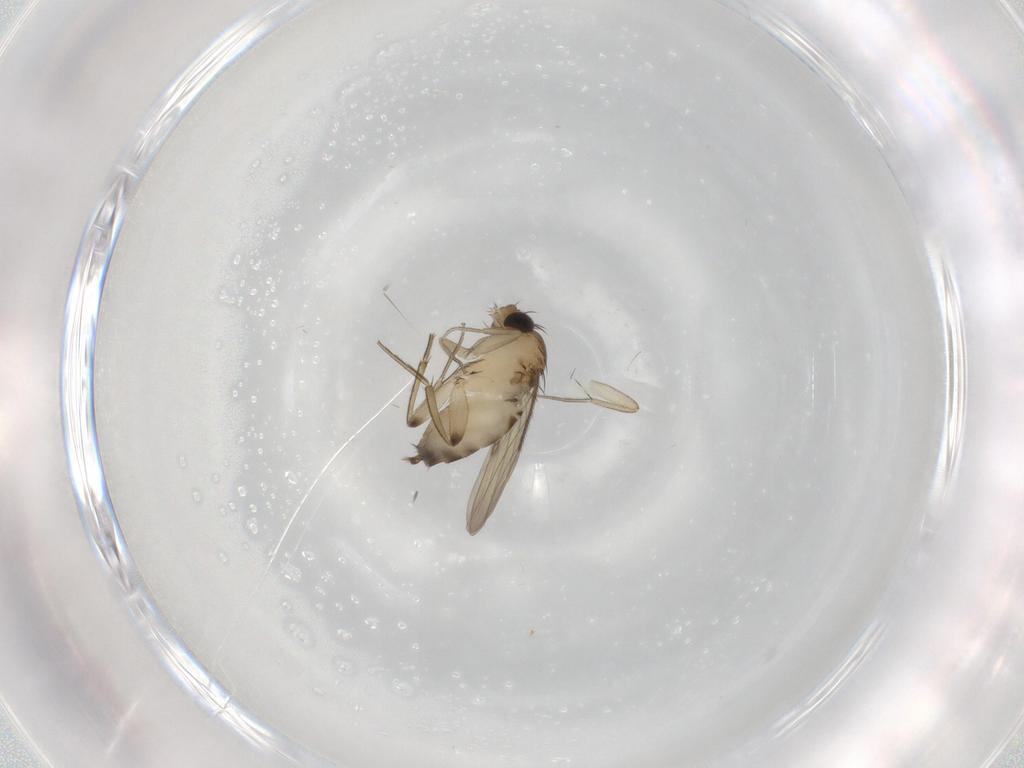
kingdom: Animalia
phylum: Arthropoda
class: Insecta
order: Diptera
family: Phoridae
